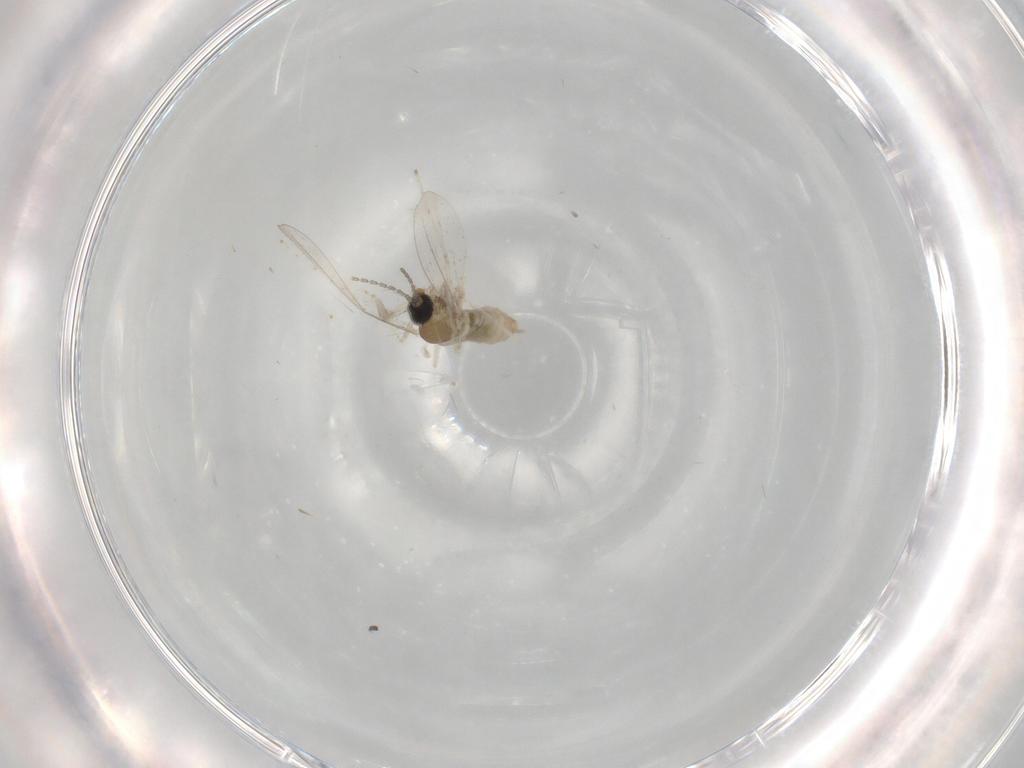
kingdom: Animalia
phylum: Arthropoda
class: Insecta
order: Diptera
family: Cecidomyiidae
